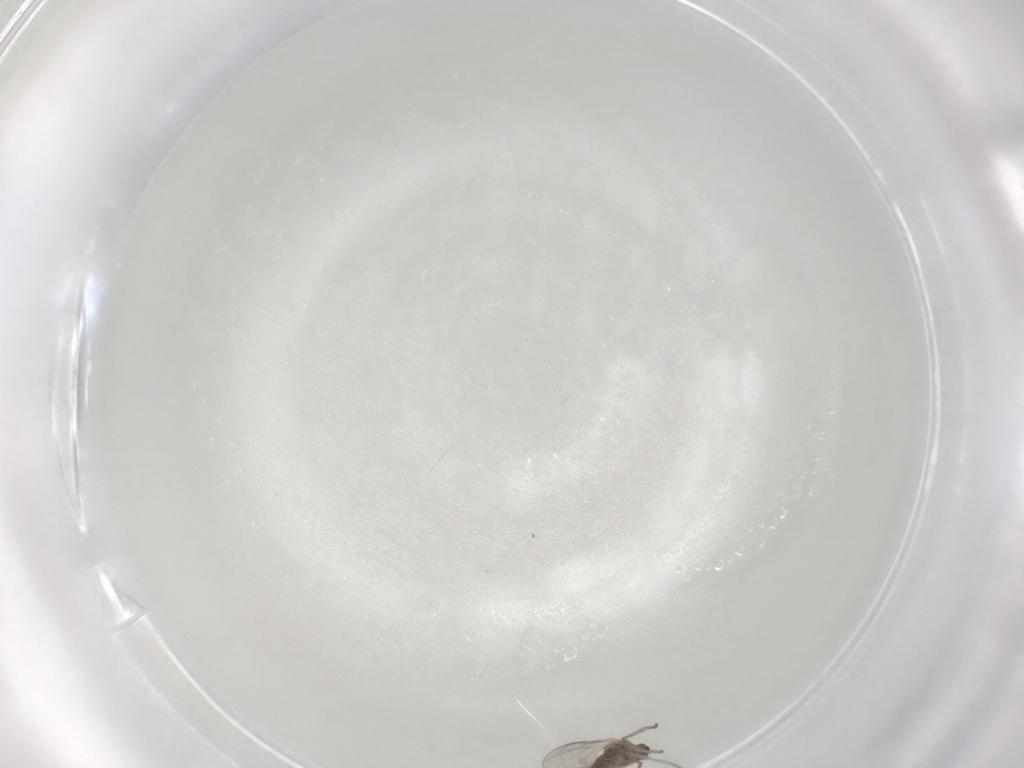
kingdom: Animalia
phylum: Arthropoda
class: Insecta
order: Diptera
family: Cecidomyiidae
